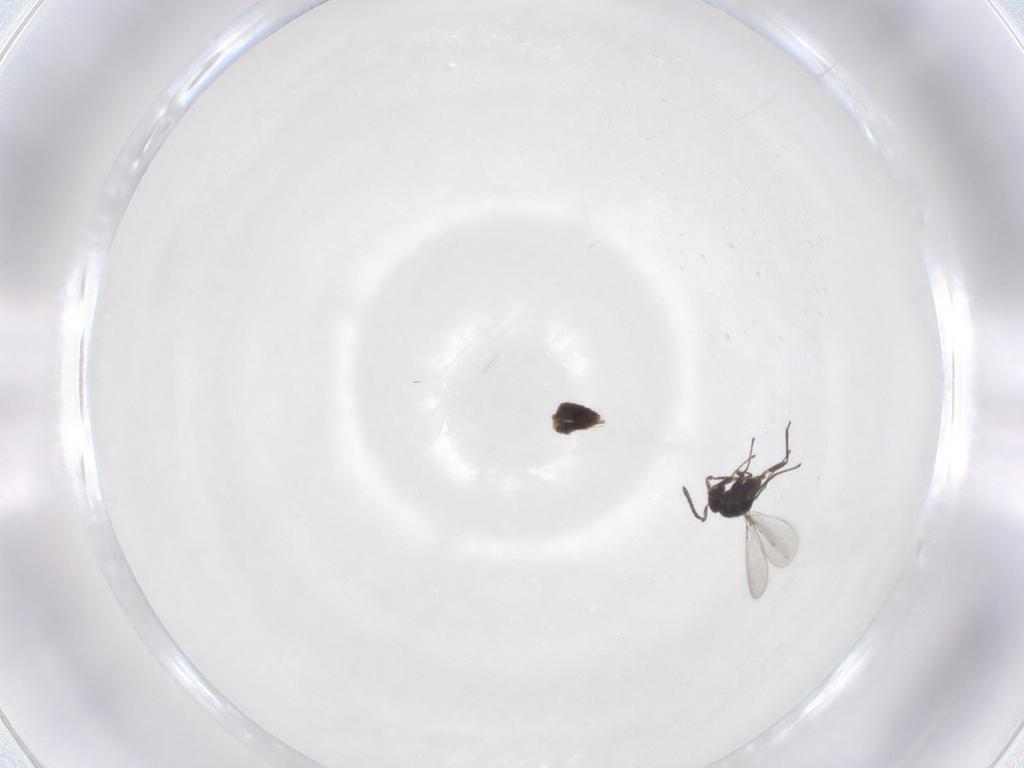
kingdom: Animalia
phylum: Arthropoda
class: Insecta
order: Hymenoptera
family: Mymaridae
